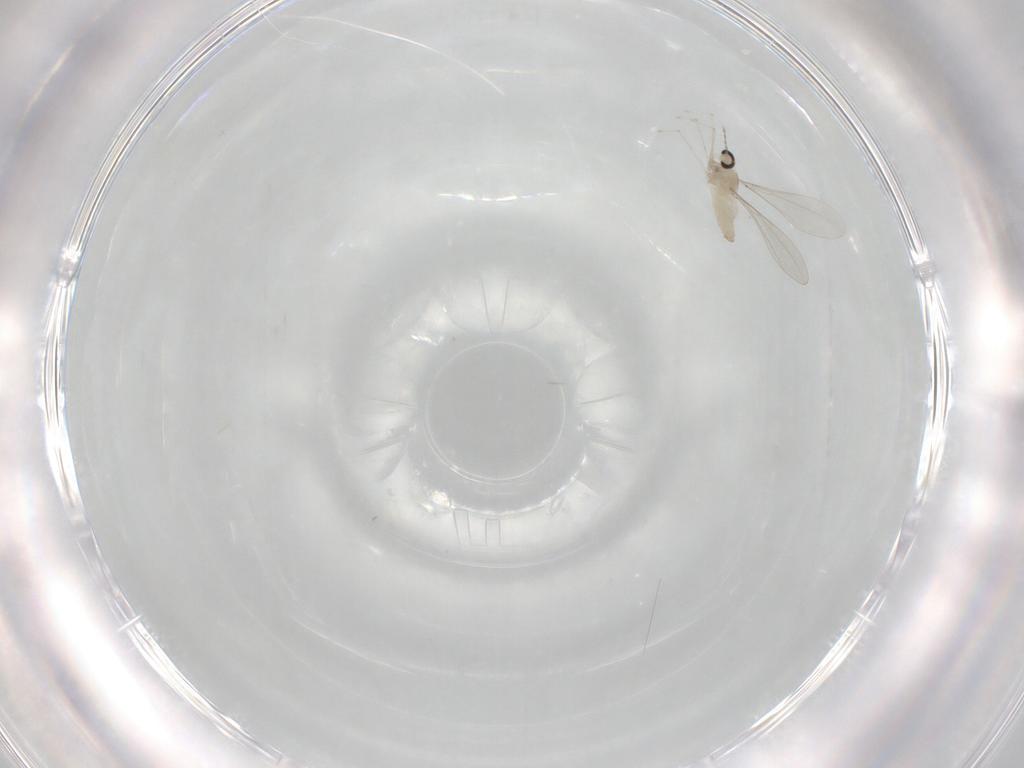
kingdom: Animalia
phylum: Arthropoda
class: Insecta
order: Diptera
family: Cecidomyiidae
